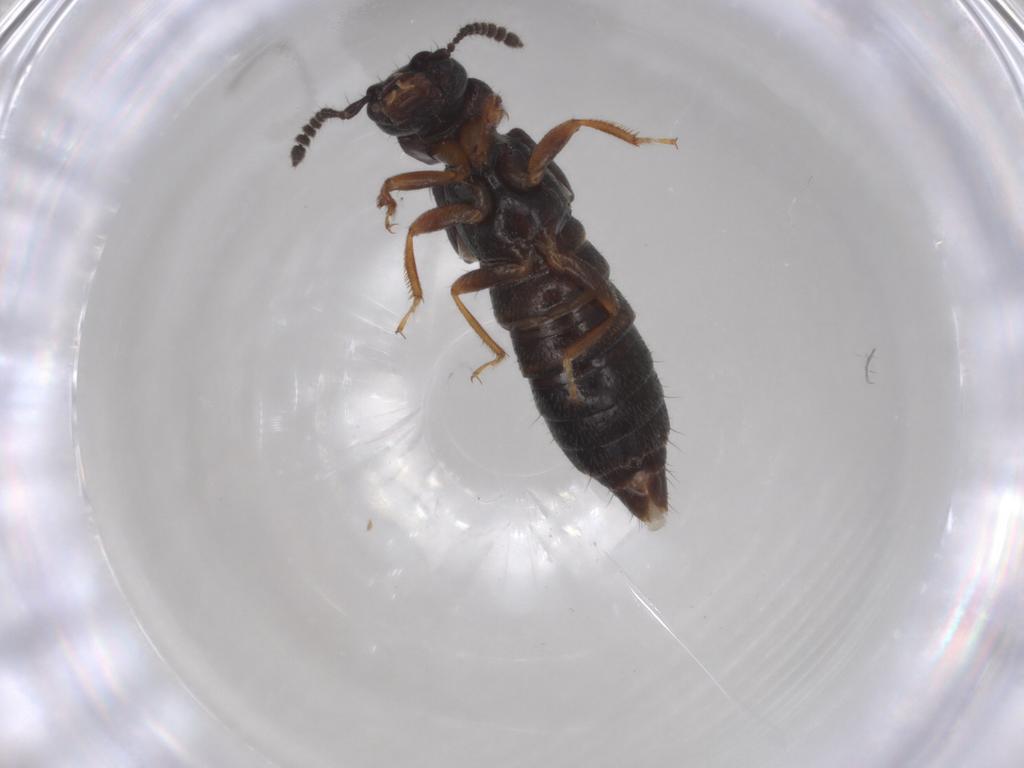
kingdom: Animalia
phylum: Arthropoda
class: Insecta
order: Coleoptera
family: Staphylinidae
